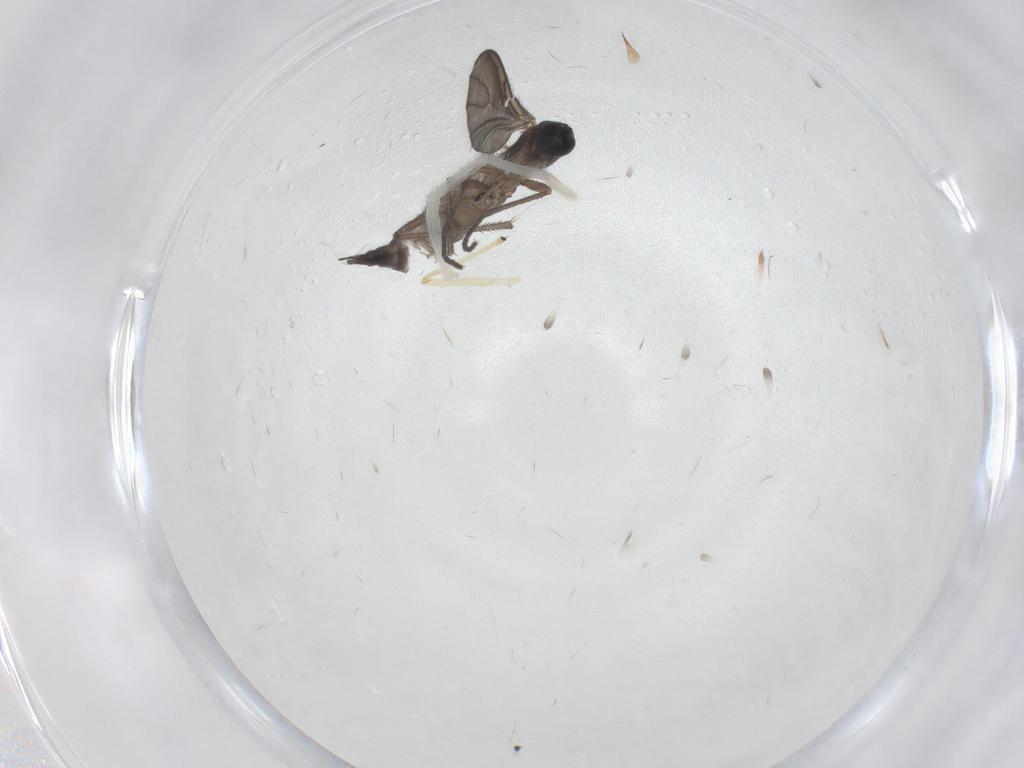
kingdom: Animalia
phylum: Arthropoda
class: Insecta
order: Diptera
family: Sciaridae
